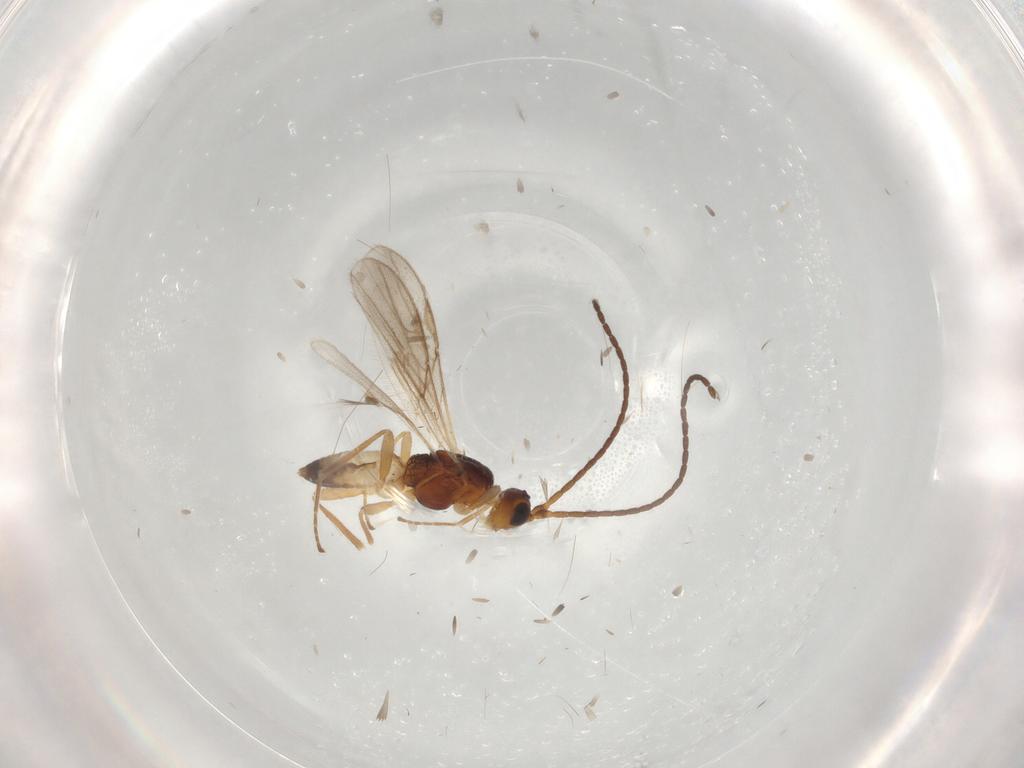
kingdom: Animalia
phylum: Arthropoda
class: Insecta
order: Hymenoptera
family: Braconidae
